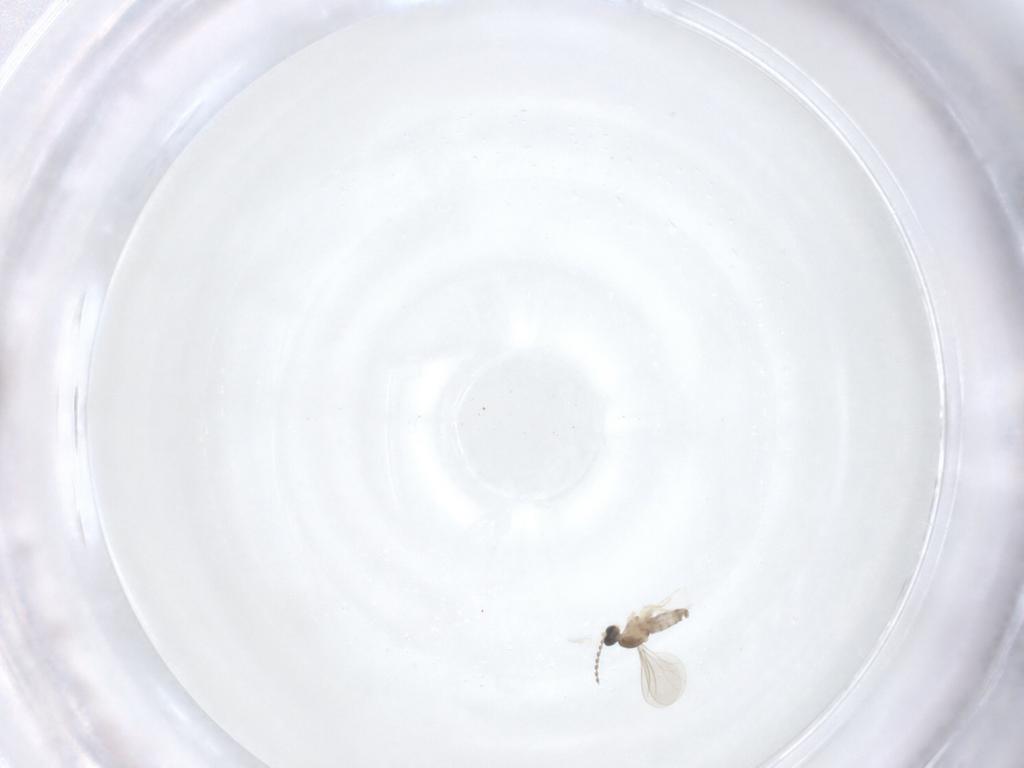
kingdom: Animalia
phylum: Arthropoda
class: Insecta
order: Diptera
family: Cecidomyiidae
